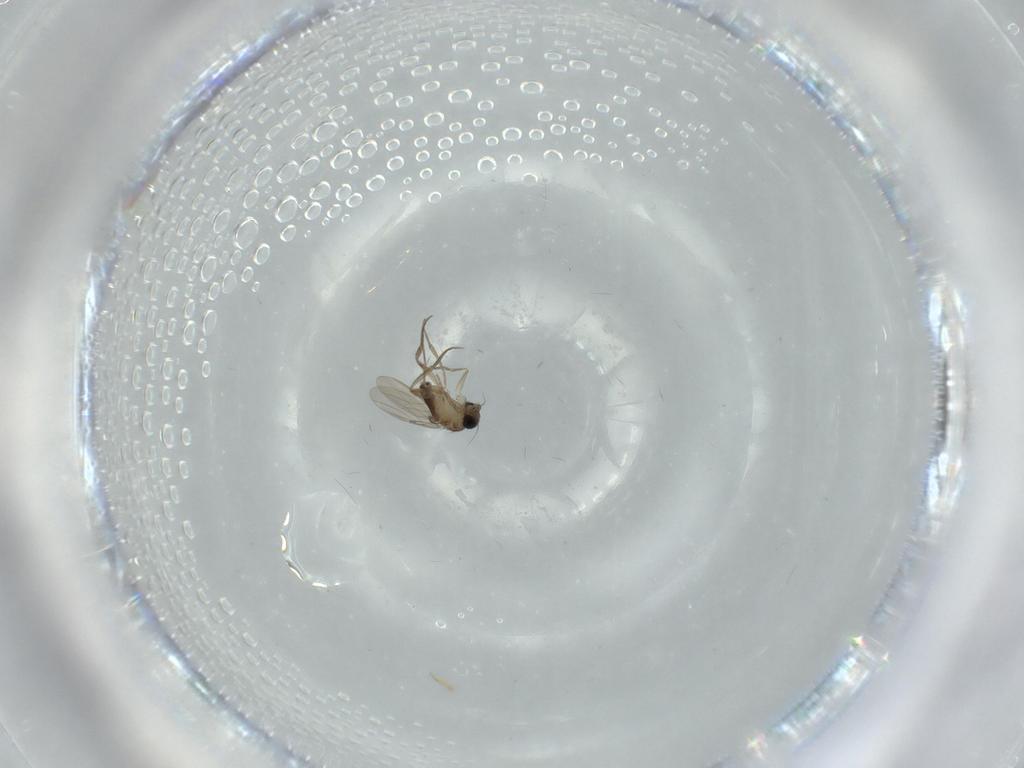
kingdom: Animalia
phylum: Arthropoda
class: Insecta
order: Diptera
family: Phoridae
